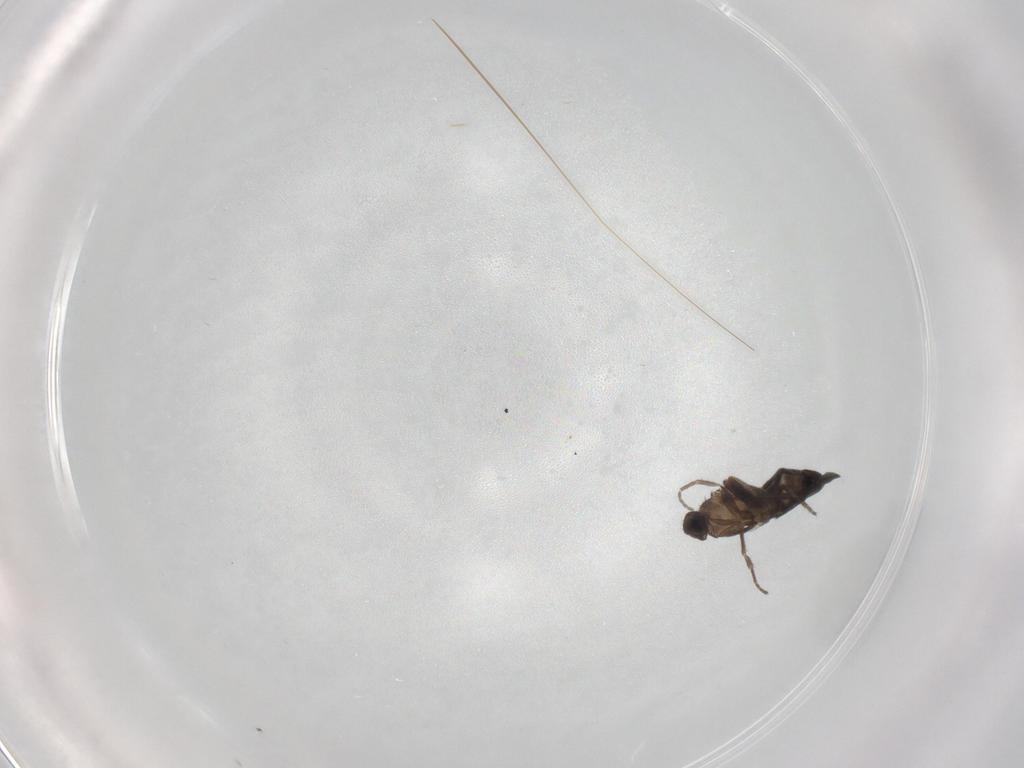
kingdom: Animalia
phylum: Arthropoda
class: Insecta
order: Diptera
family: Phoridae
